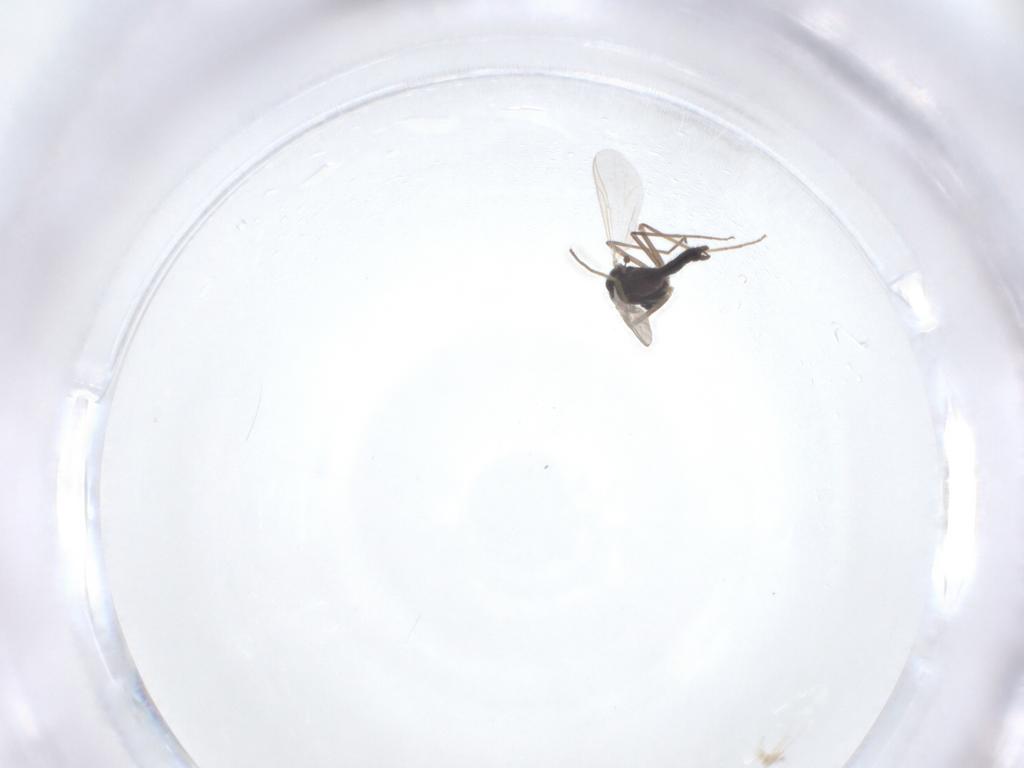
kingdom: Animalia
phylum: Arthropoda
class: Insecta
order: Diptera
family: Chironomidae
